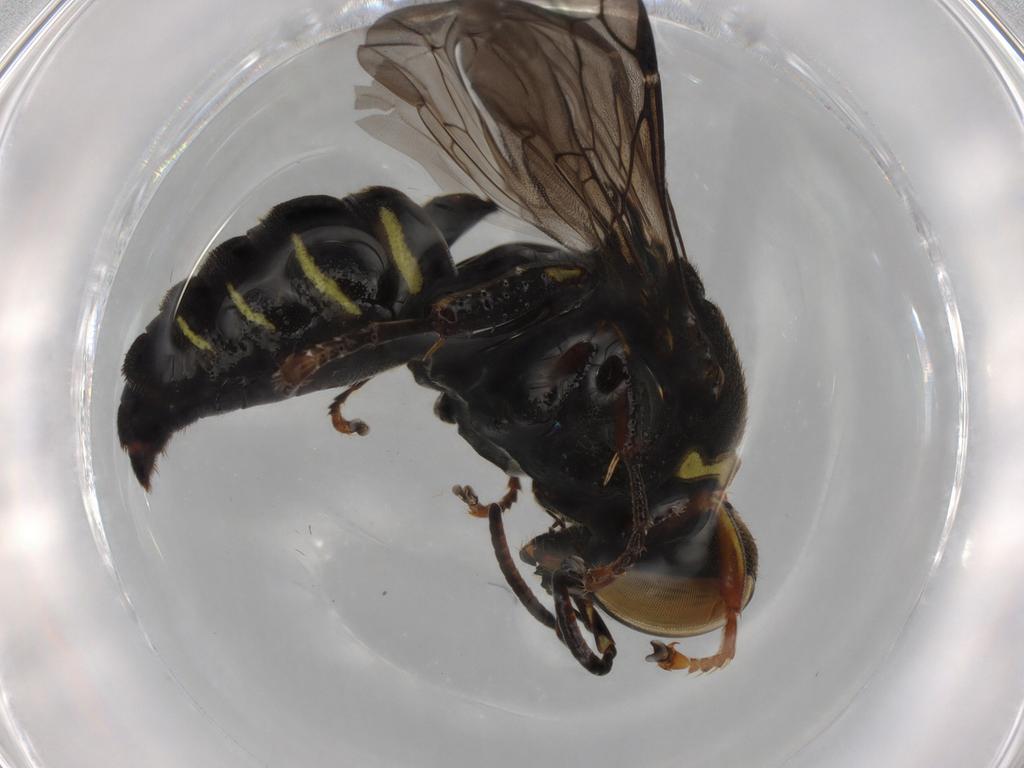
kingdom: Animalia
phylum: Arthropoda
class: Insecta
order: Hymenoptera
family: Crabronidae
